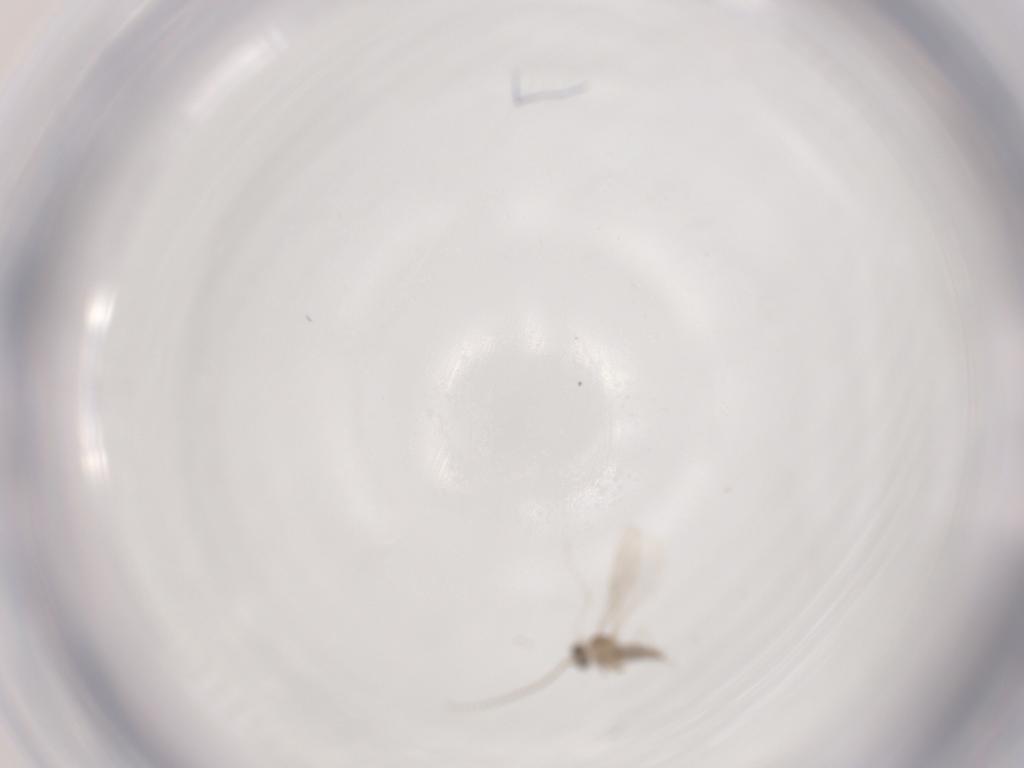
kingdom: Animalia
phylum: Arthropoda
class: Insecta
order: Diptera
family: Cecidomyiidae
